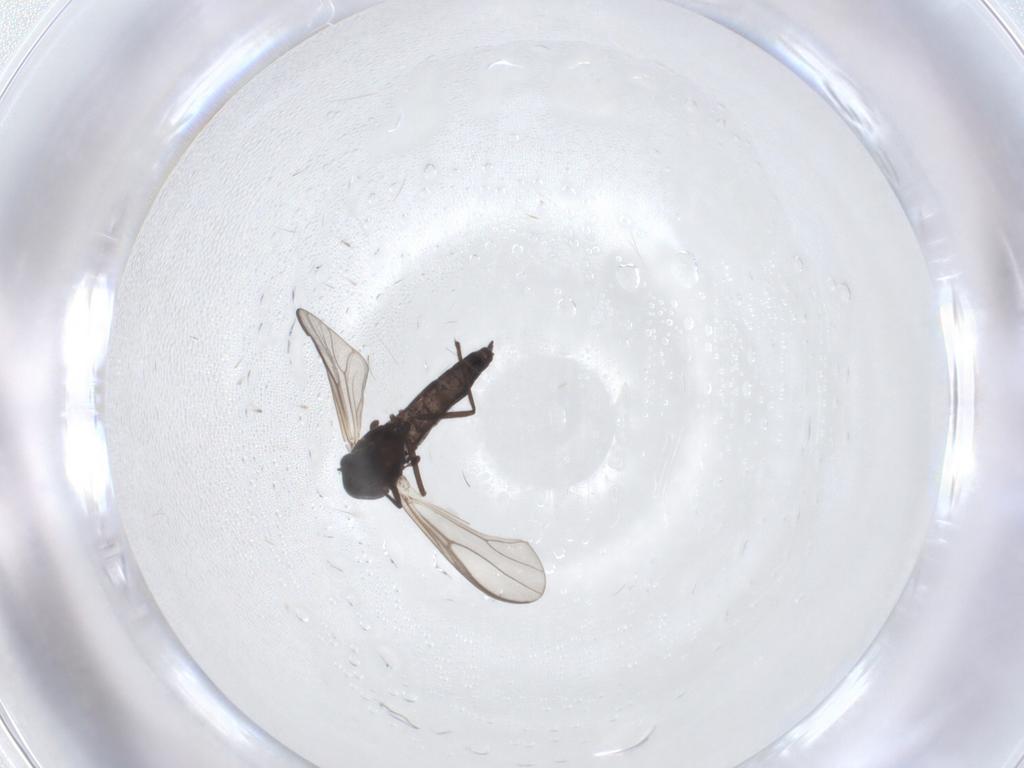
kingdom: Animalia
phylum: Arthropoda
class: Insecta
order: Diptera
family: Chironomidae
